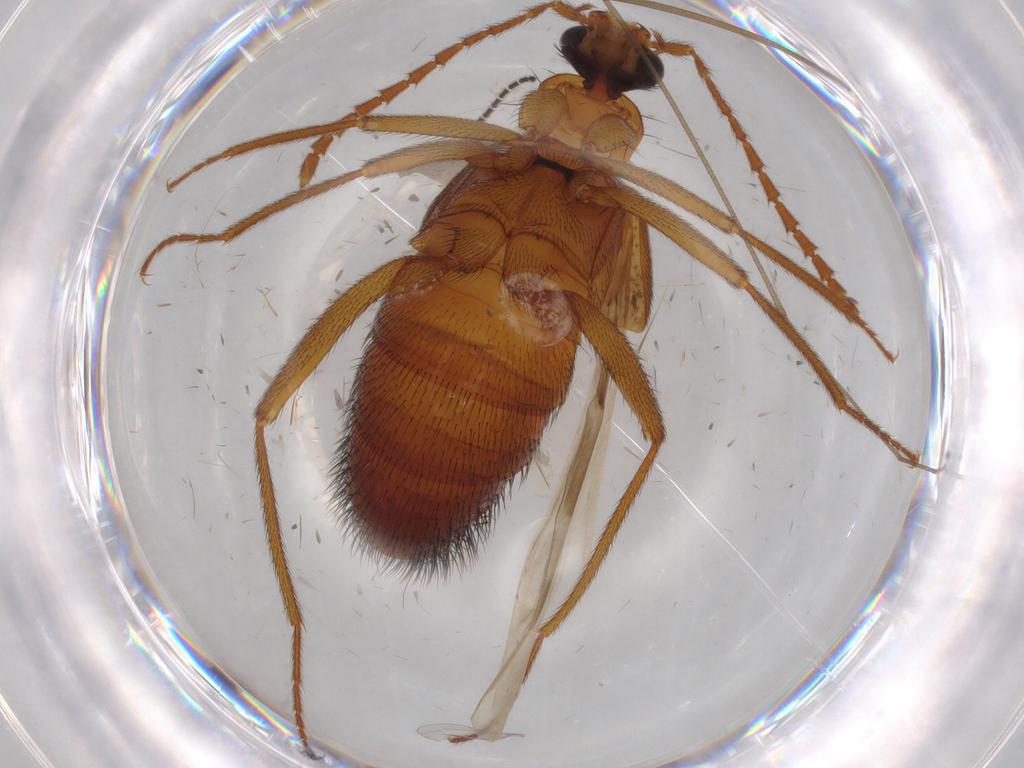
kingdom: Animalia
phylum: Arthropoda
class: Insecta
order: Coleoptera
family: Staphylinidae
